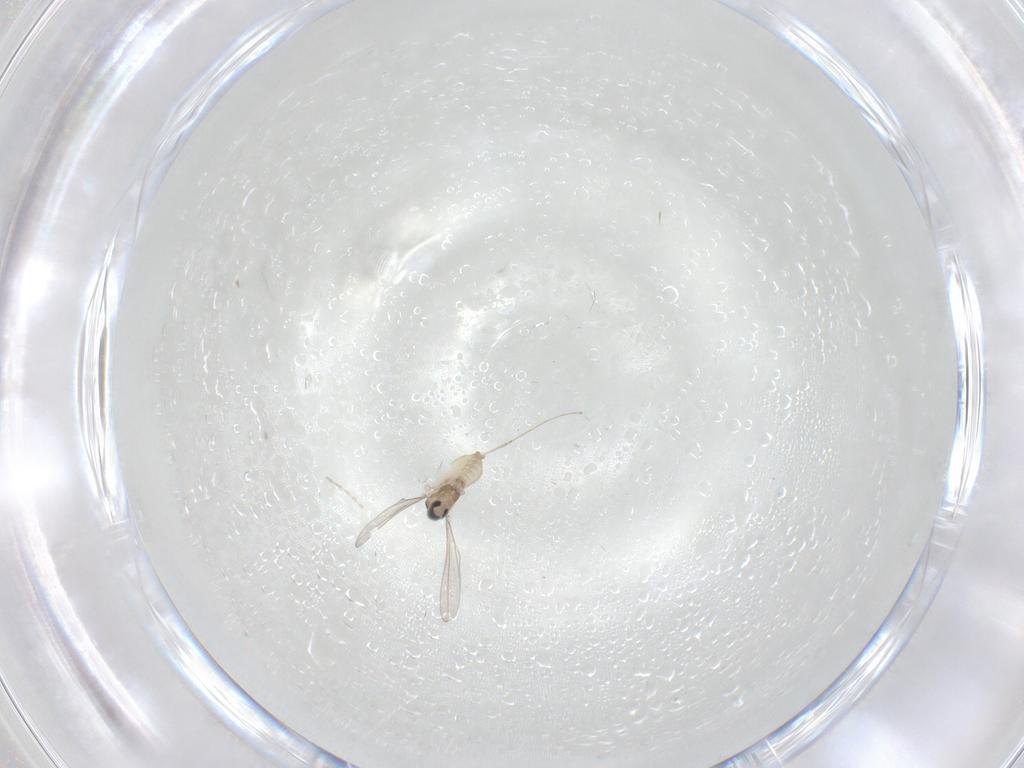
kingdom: Animalia
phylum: Arthropoda
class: Insecta
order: Diptera
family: Cecidomyiidae
